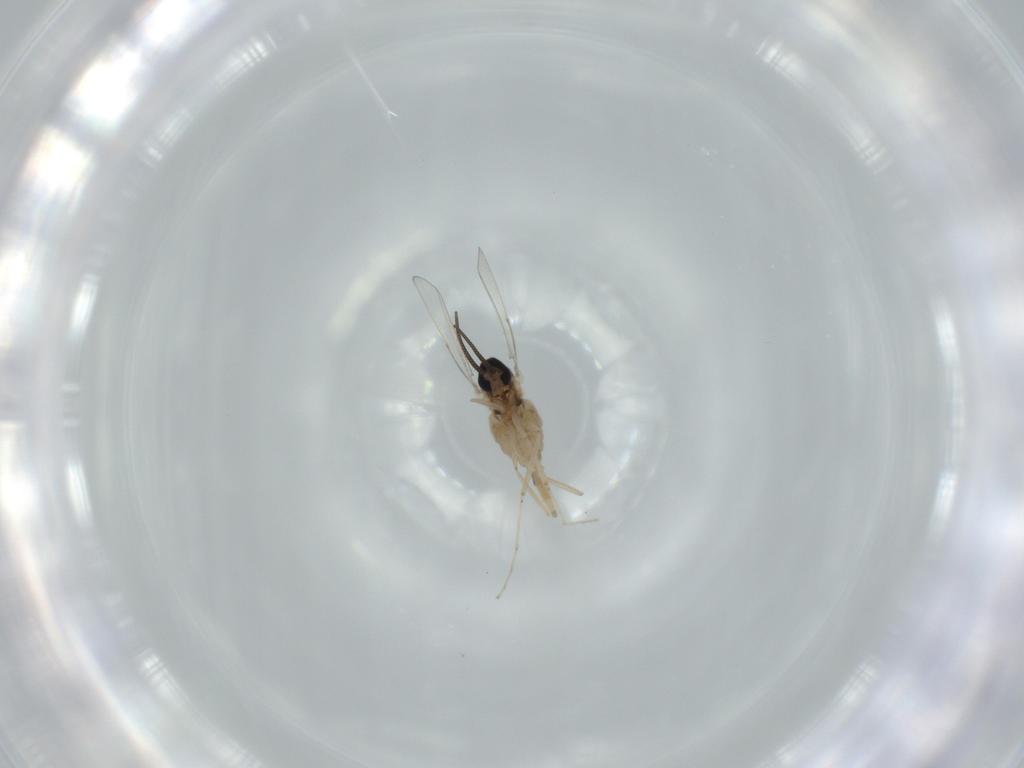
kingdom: Animalia
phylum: Arthropoda
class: Insecta
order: Diptera
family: Cecidomyiidae
